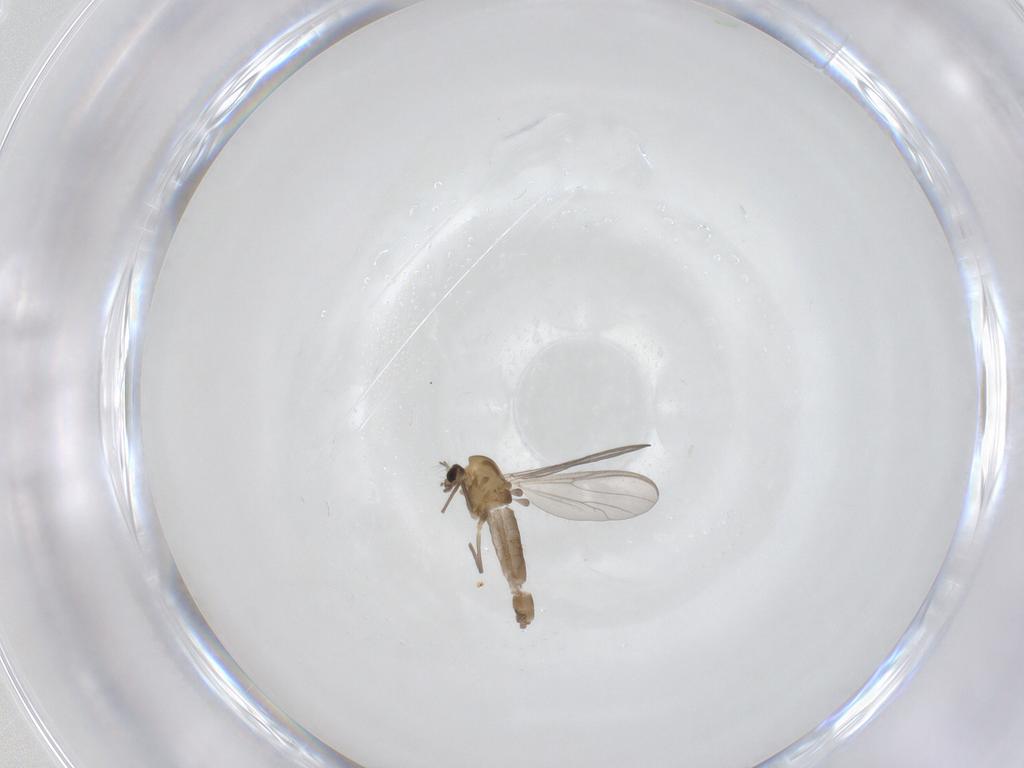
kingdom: Animalia
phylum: Arthropoda
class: Insecta
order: Diptera
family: Chironomidae
